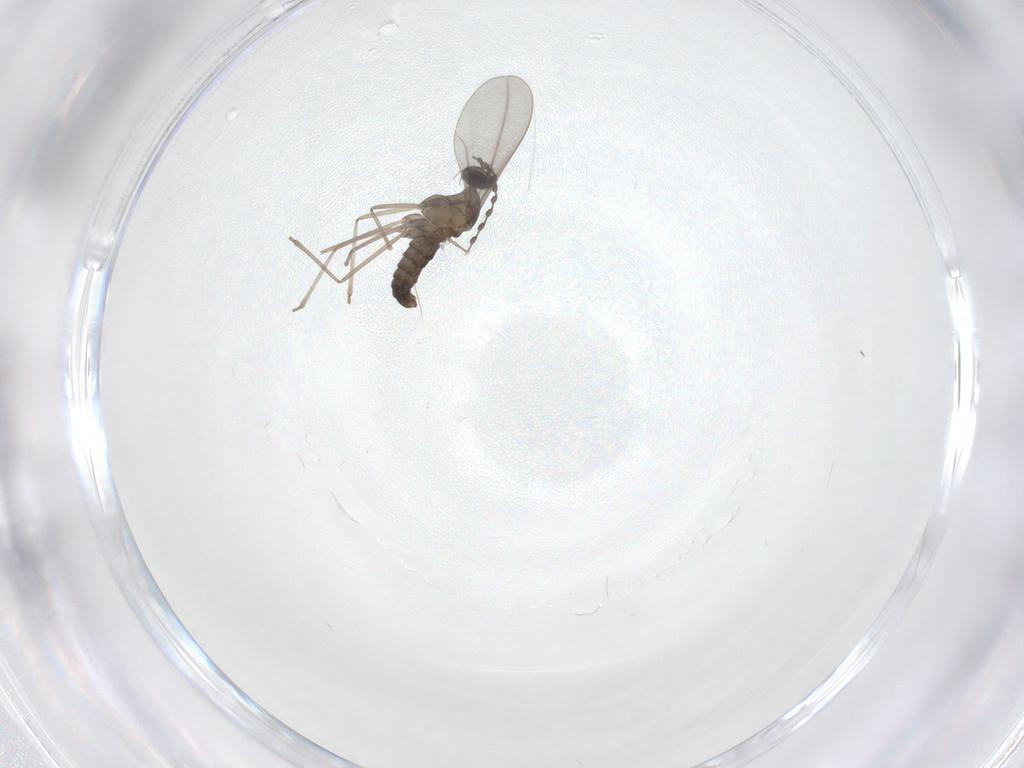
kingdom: Animalia
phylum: Arthropoda
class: Insecta
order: Diptera
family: Cecidomyiidae
